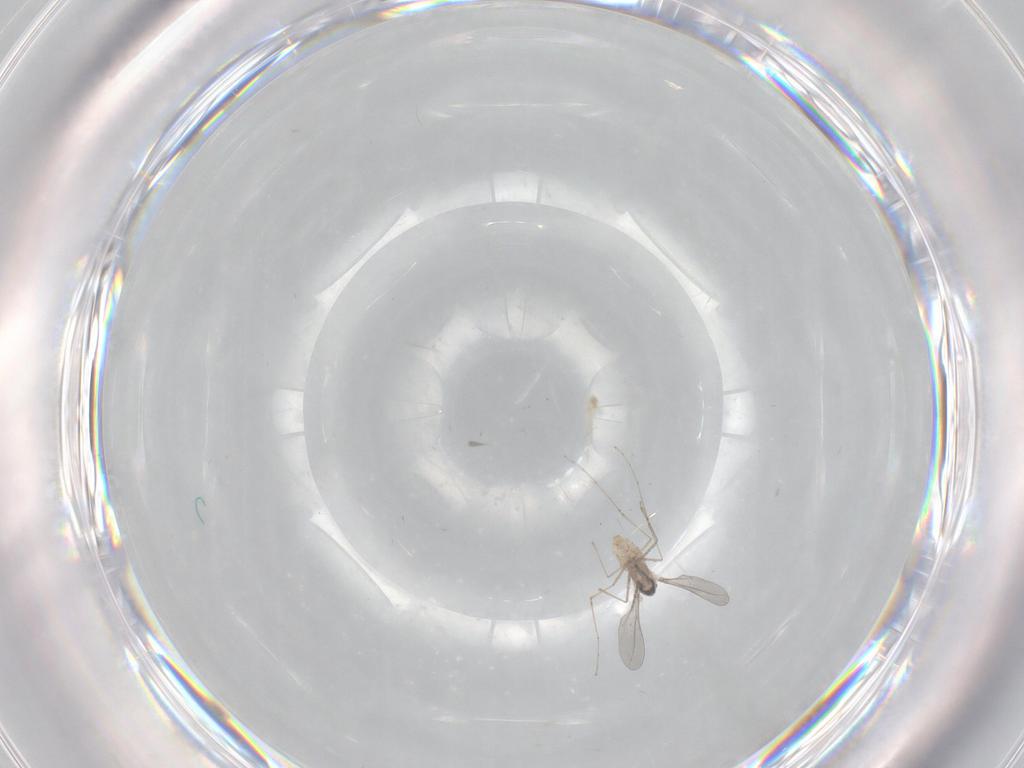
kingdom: Animalia
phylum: Arthropoda
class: Insecta
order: Diptera
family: Cecidomyiidae
